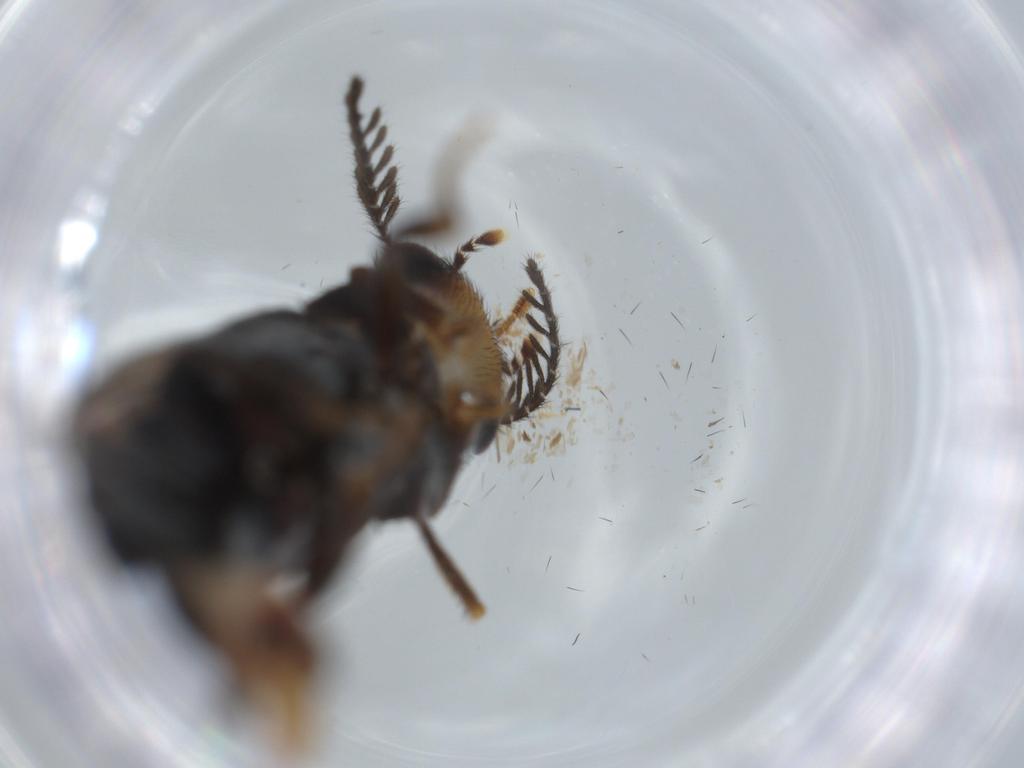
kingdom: Animalia
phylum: Arthropoda
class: Insecta
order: Coleoptera
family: Coccinellidae
